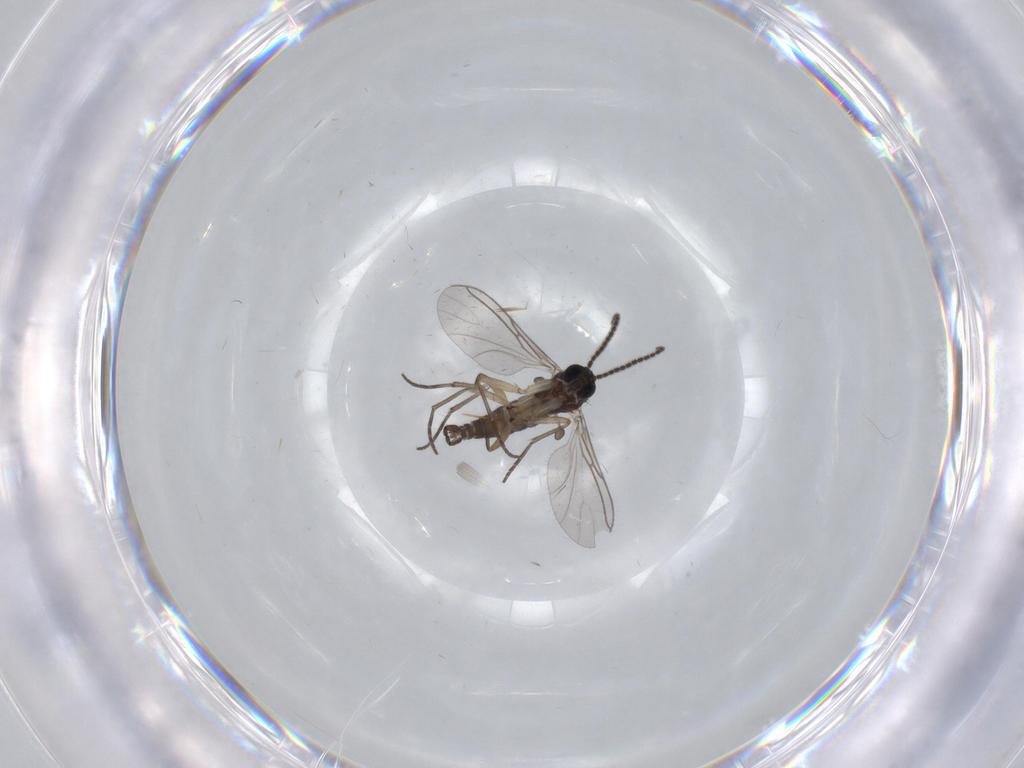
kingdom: Animalia
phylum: Arthropoda
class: Insecta
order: Diptera
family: Sciaridae
